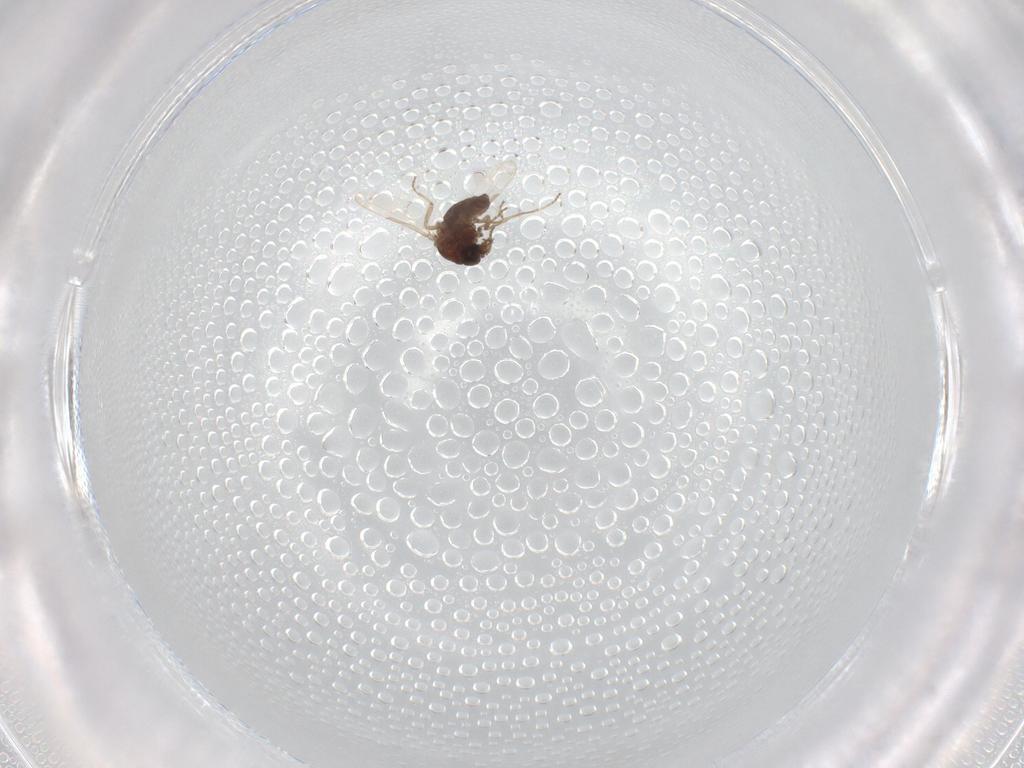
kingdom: Animalia
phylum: Arthropoda
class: Insecta
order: Diptera
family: Ceratopogonidae
